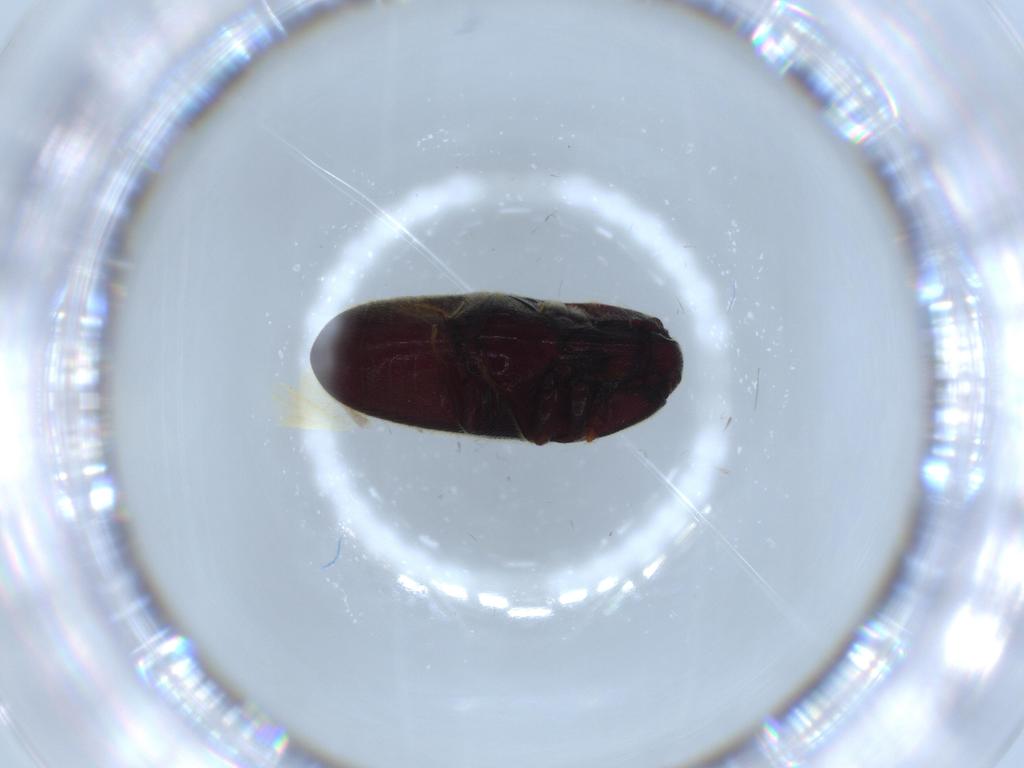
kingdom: Animalia
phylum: Arthropoda
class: Insecta
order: Coleoptera
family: Throscidae
